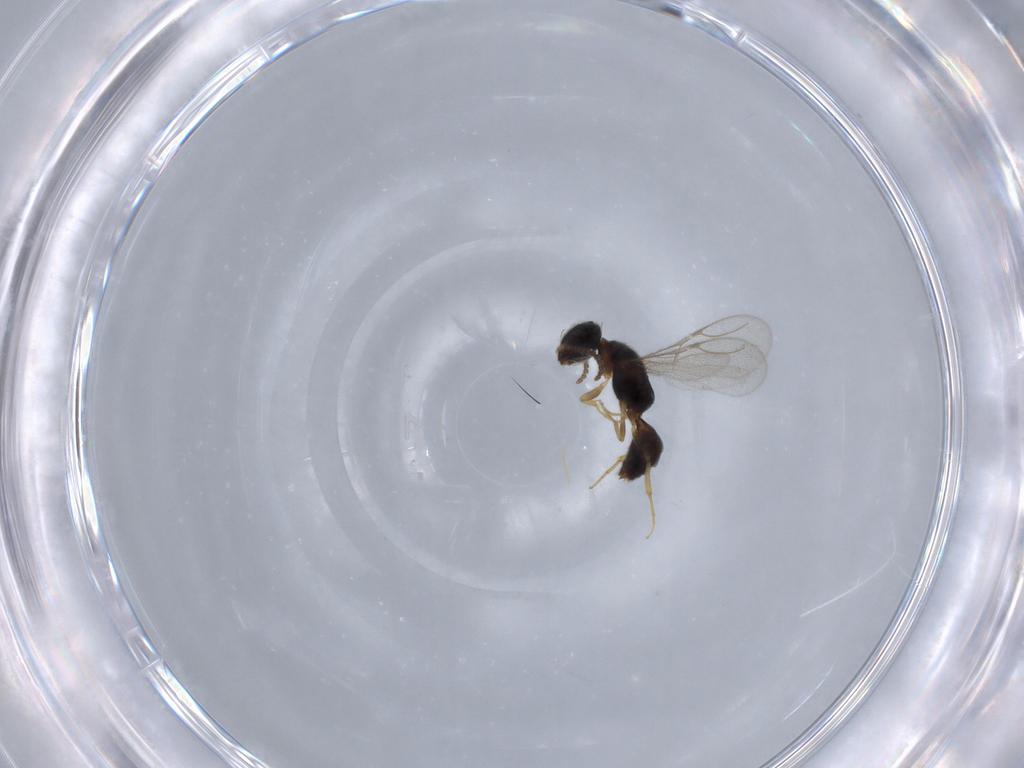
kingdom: Animalia
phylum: Arthropoda
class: Insecta
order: Hymenoptera
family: Bethylidae
